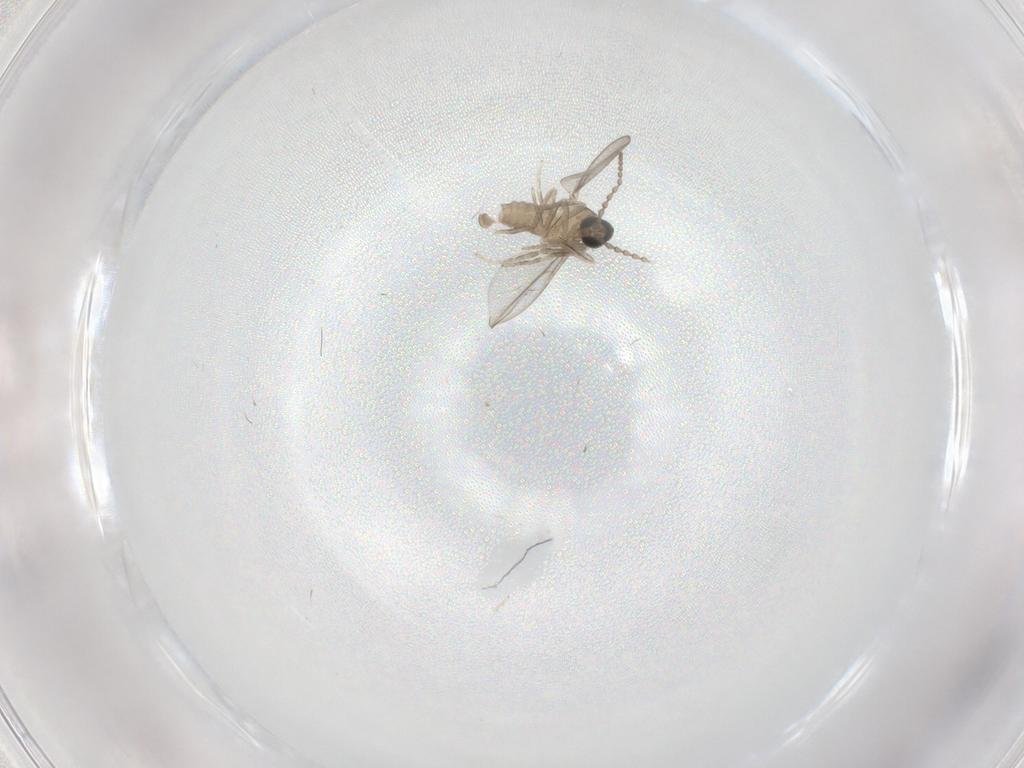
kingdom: Animalia
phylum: Arthropoda
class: Insecta
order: Diptera
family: Cecidomyiidae
